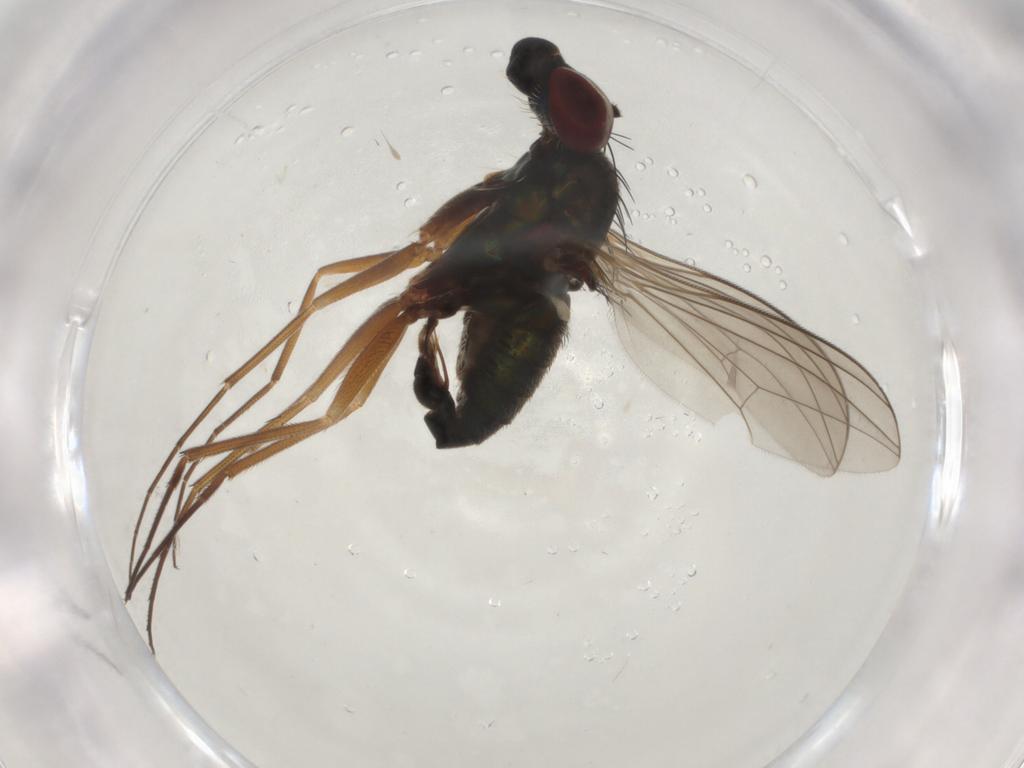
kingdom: Animalia
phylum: Arthropoda
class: Insecta
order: Diptera
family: Dolichopodidae
